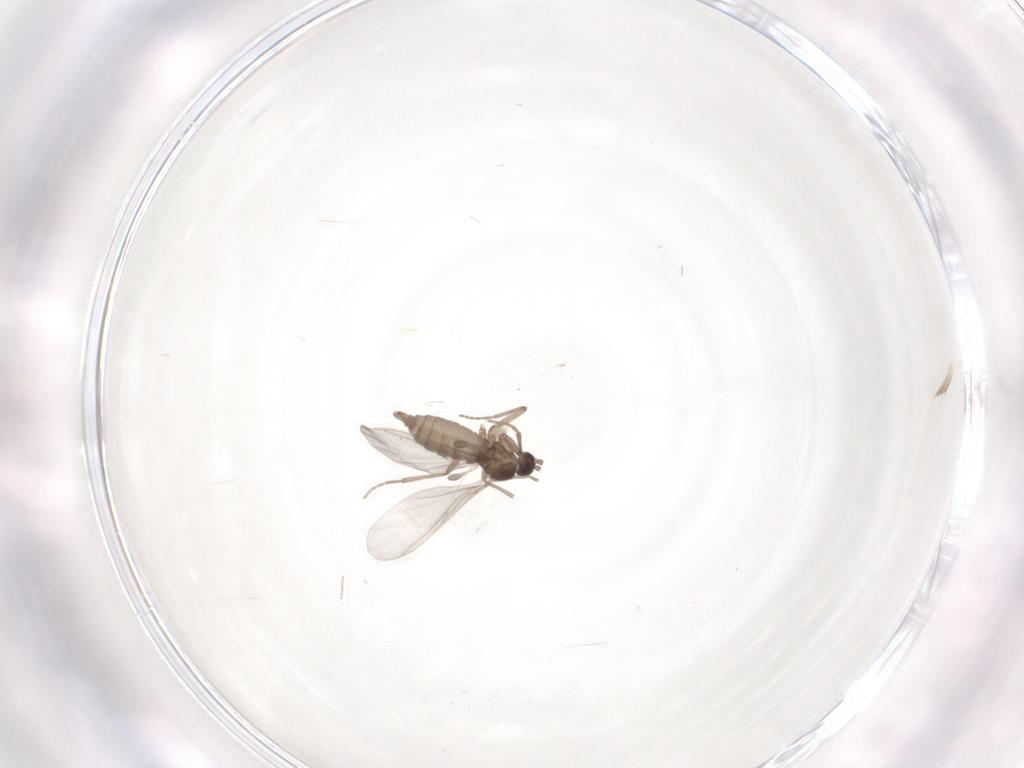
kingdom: Animalia
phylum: Arthropoda
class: Insecta
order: Diptera
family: Cecidomyiidae
